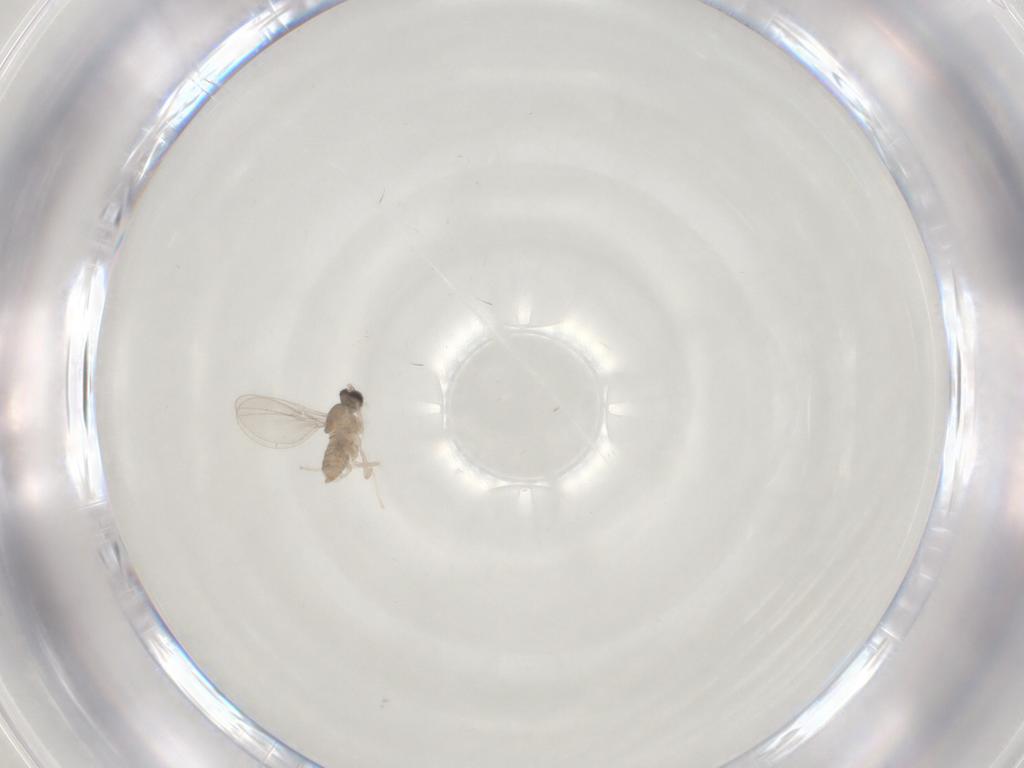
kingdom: Animalia
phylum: Arthropoda
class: Insecta
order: Diptera
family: Cecidomyiidae
